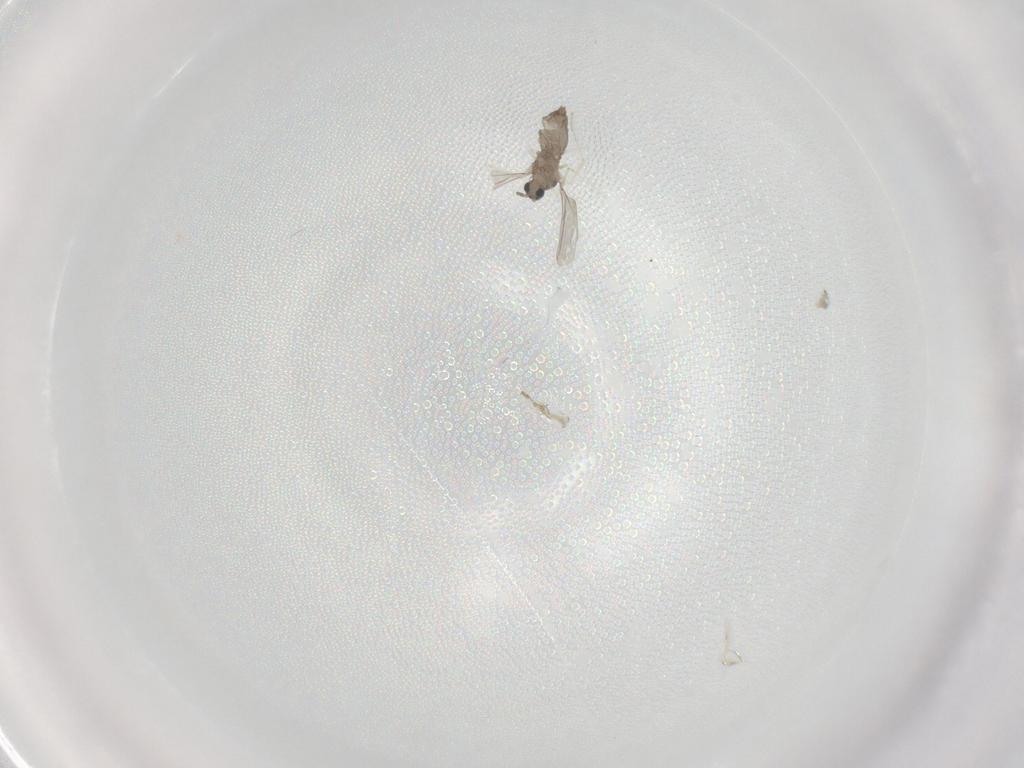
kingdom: Animalia
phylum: Arthropoda
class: Insecta
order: Diptera
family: Cecidomyiidae
